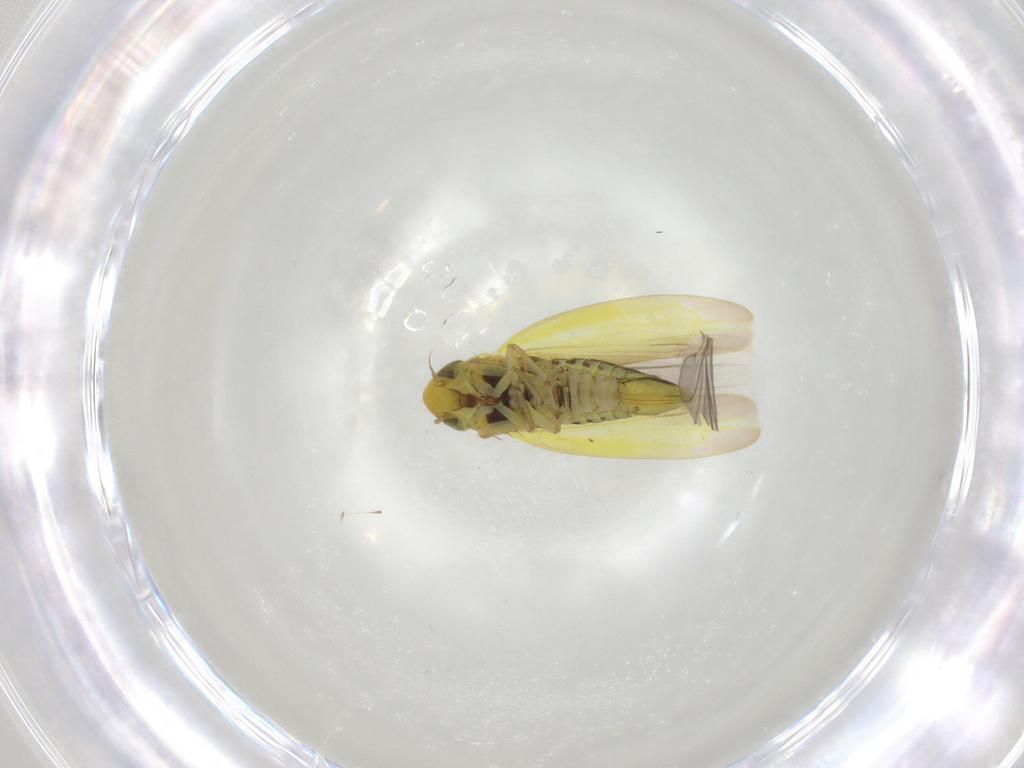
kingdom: Animalia
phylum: Arthropoda
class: Insecta
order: Hemiptera
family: Cicadellidae
